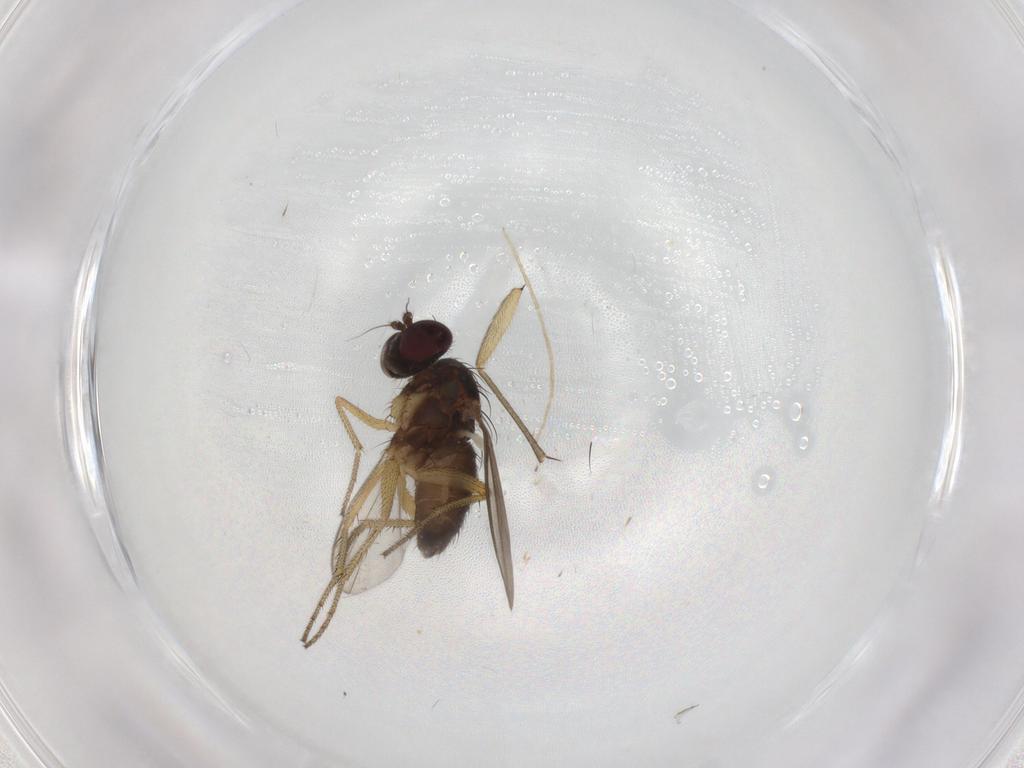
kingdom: Animalia
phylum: Arthropoda
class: Insecta
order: Diptera
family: Dolichopodidae
